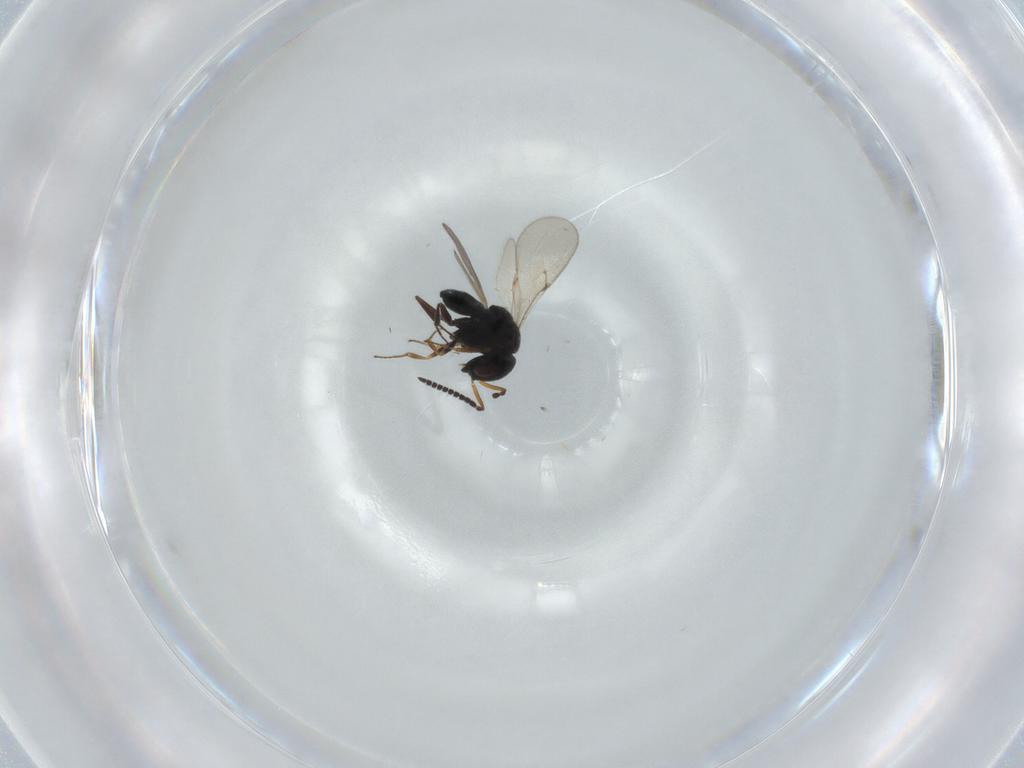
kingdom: Animalia
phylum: Arthropoda
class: Insecta
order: Hymenoptera
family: Scelionidae
